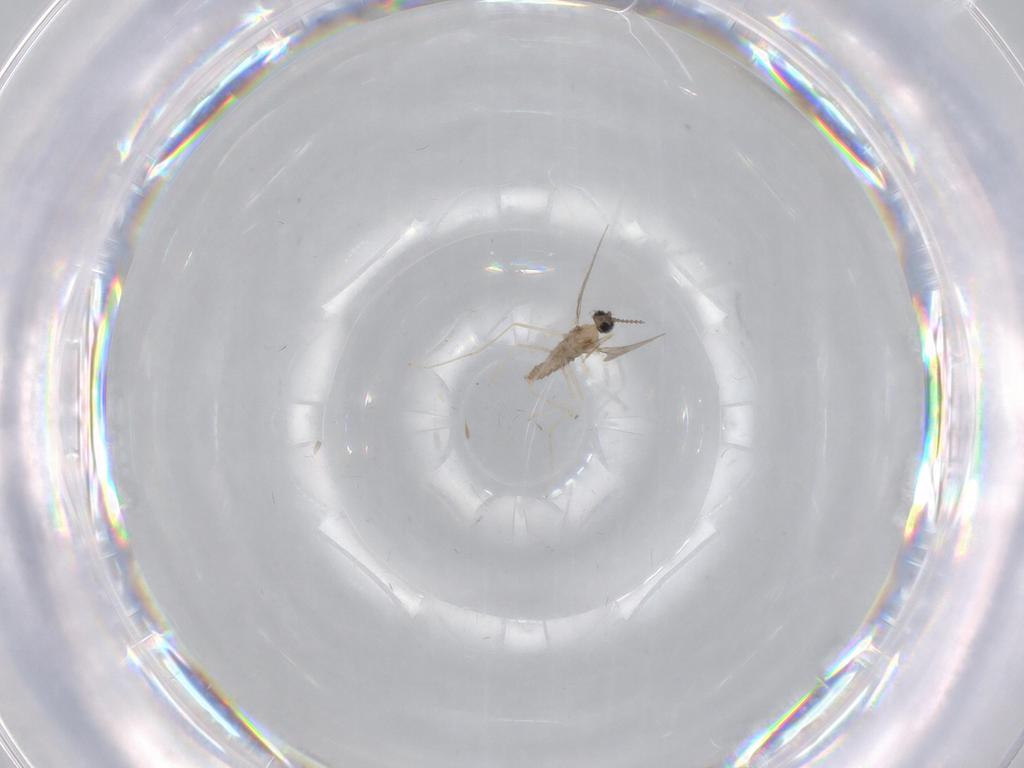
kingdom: Animalia
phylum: Arthropoda
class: Insecta
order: Diptera
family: Cecidomyiidae
